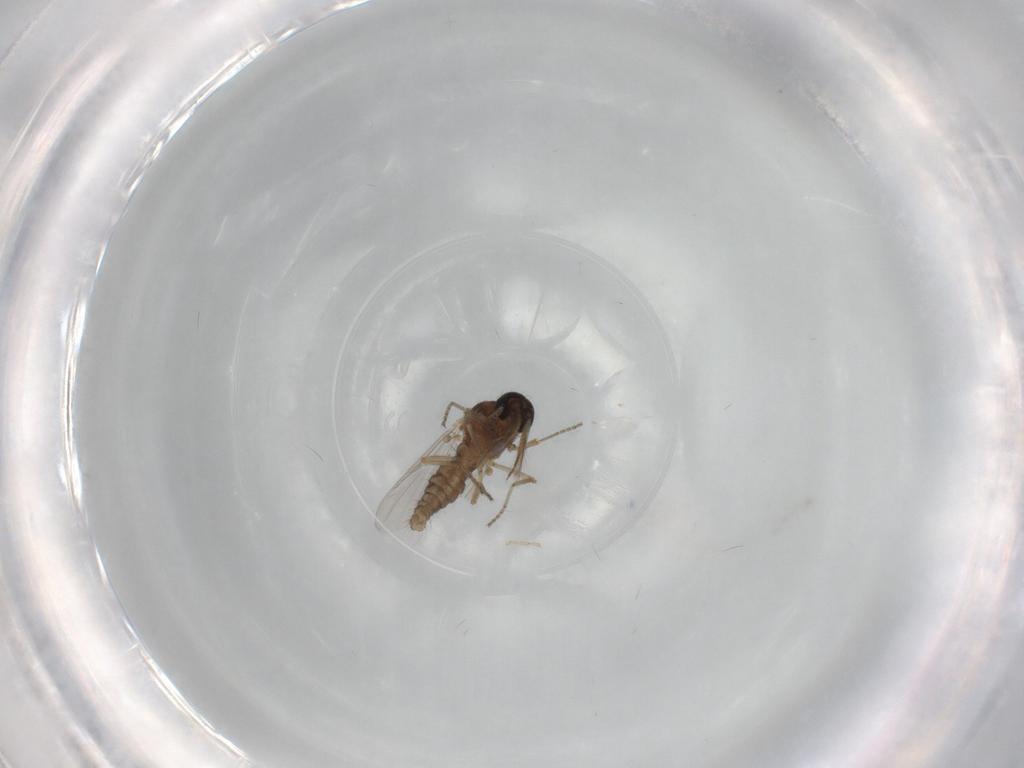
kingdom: Animalia
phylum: Arthropoda
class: Insecta
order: Diptera
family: Ceratopogonidae
